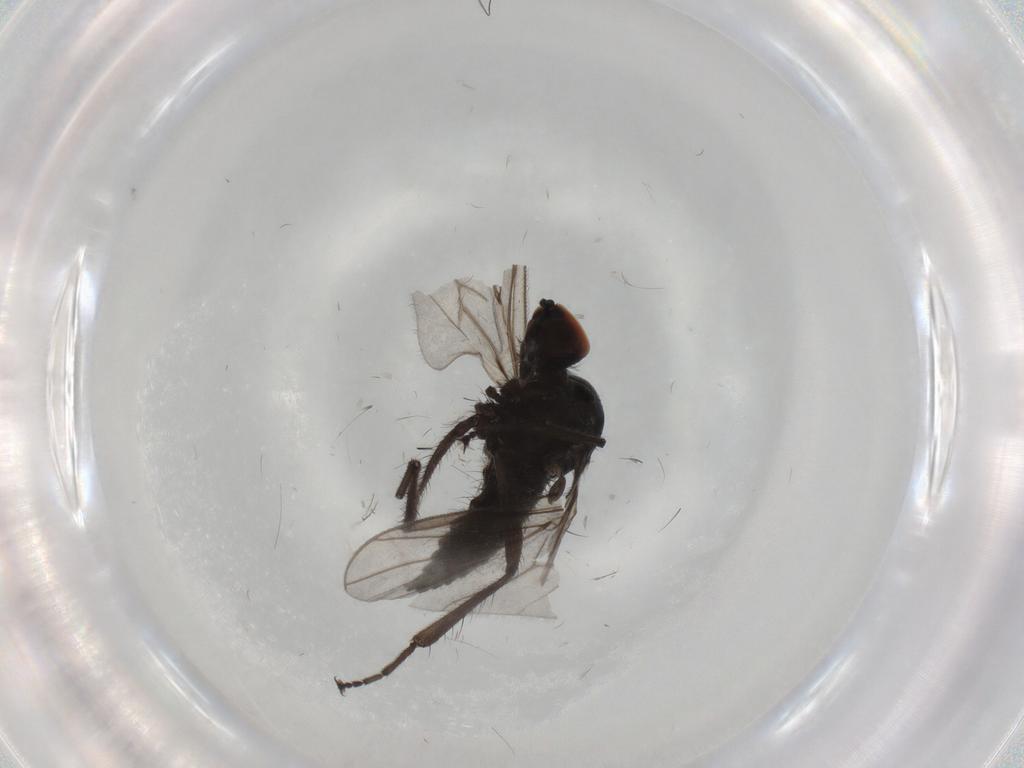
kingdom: Animalia
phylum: Arthropoda
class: Insecta
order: Diptera
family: Hybotidae
